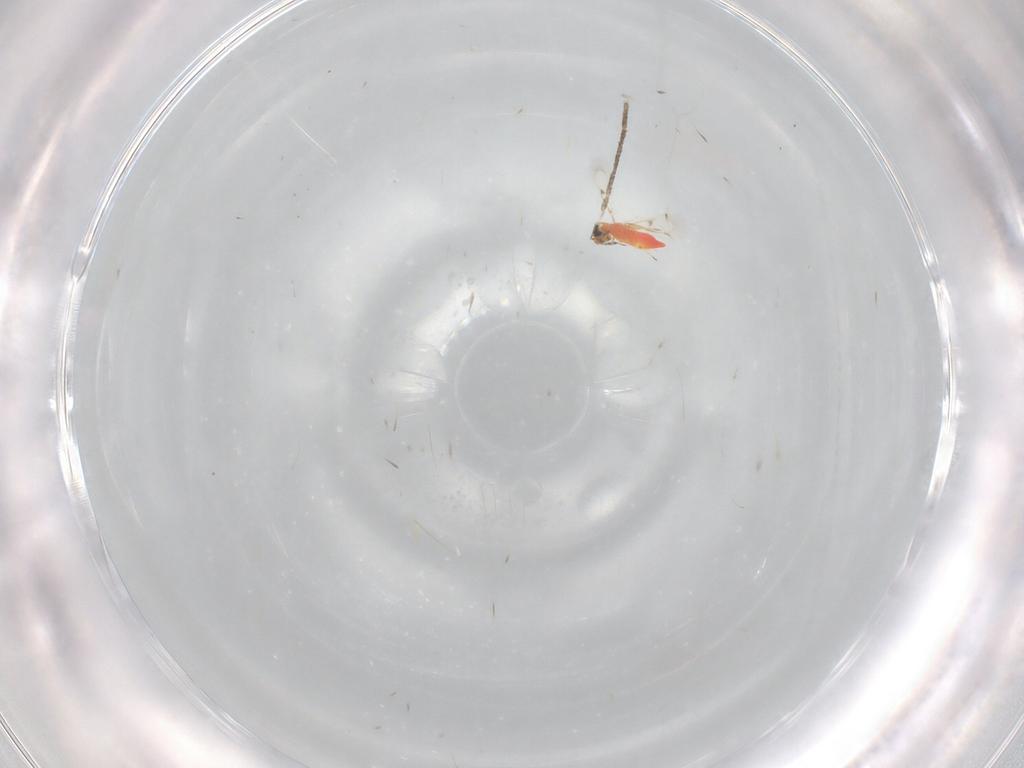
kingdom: Animalia
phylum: Arthropoda
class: Insecta
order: Hymenoptera
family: Trichogrammatidae
